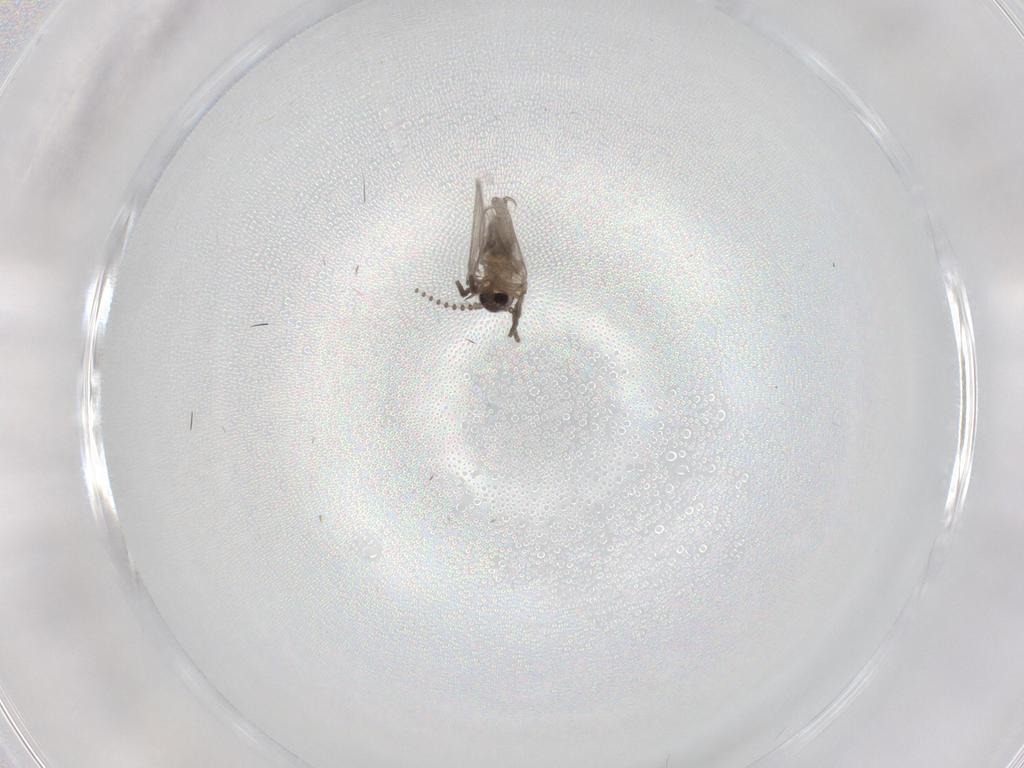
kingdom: Animalia
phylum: Arthropoda
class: Insecta
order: Diptera
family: Psychodidae
